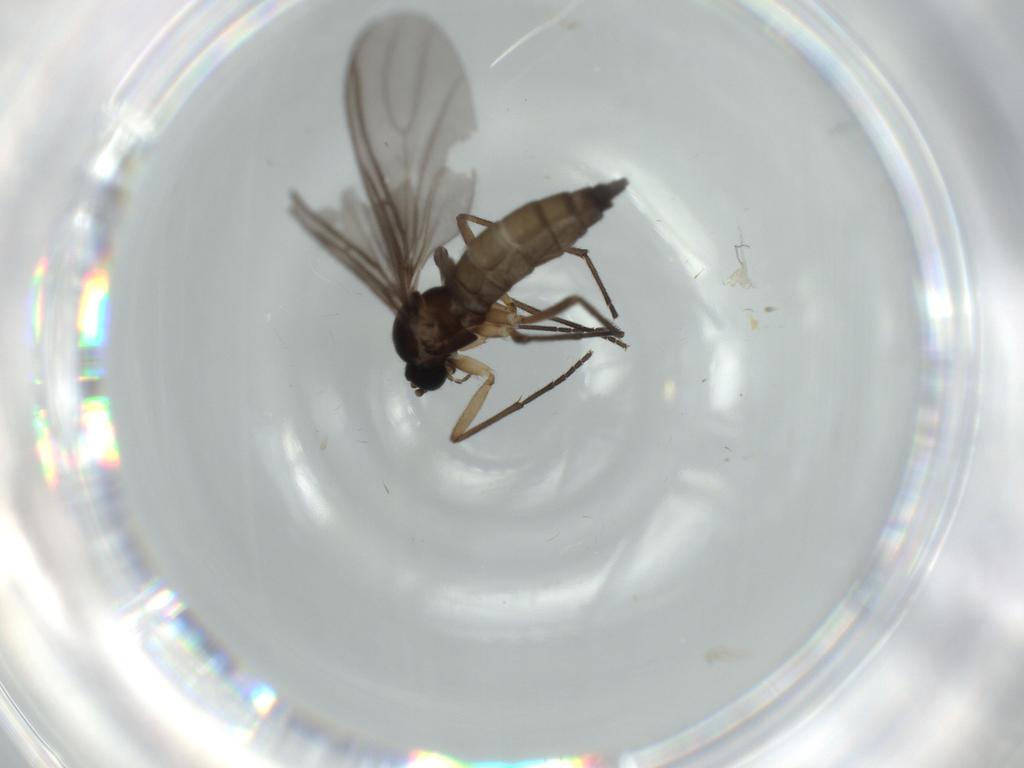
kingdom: Animalia
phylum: Arthropoda
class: Insecta
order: Diptera
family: Sciaridae
